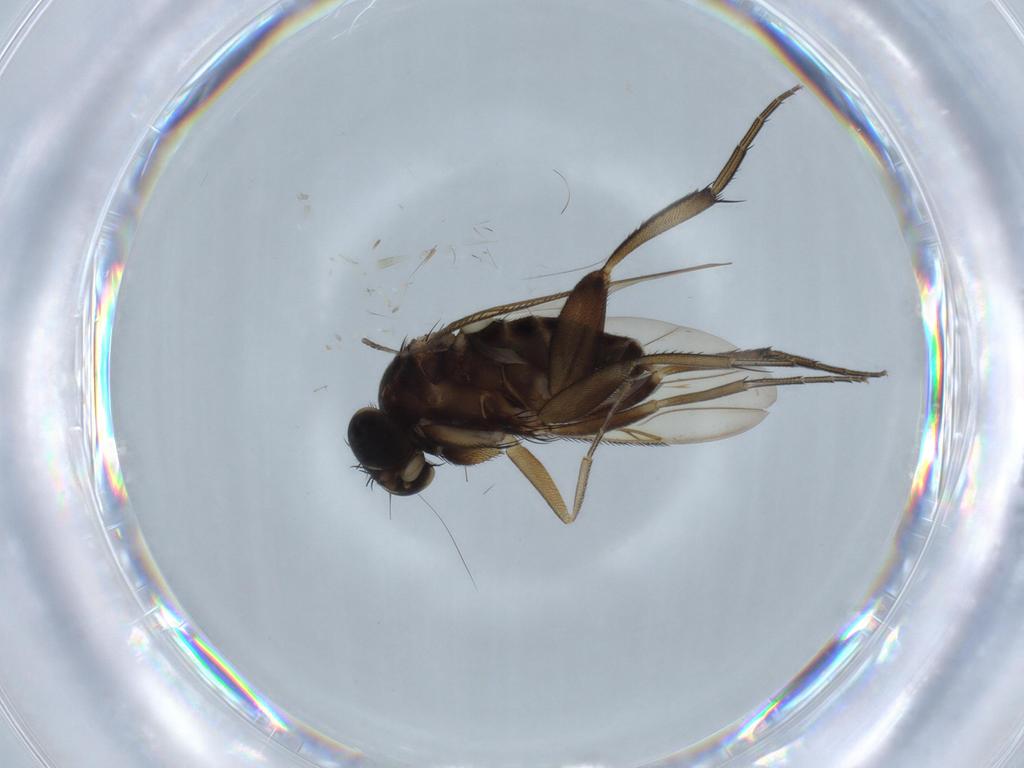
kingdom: Animalia
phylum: Arthropoda
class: Insecta
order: Diptera
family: Phoridae
